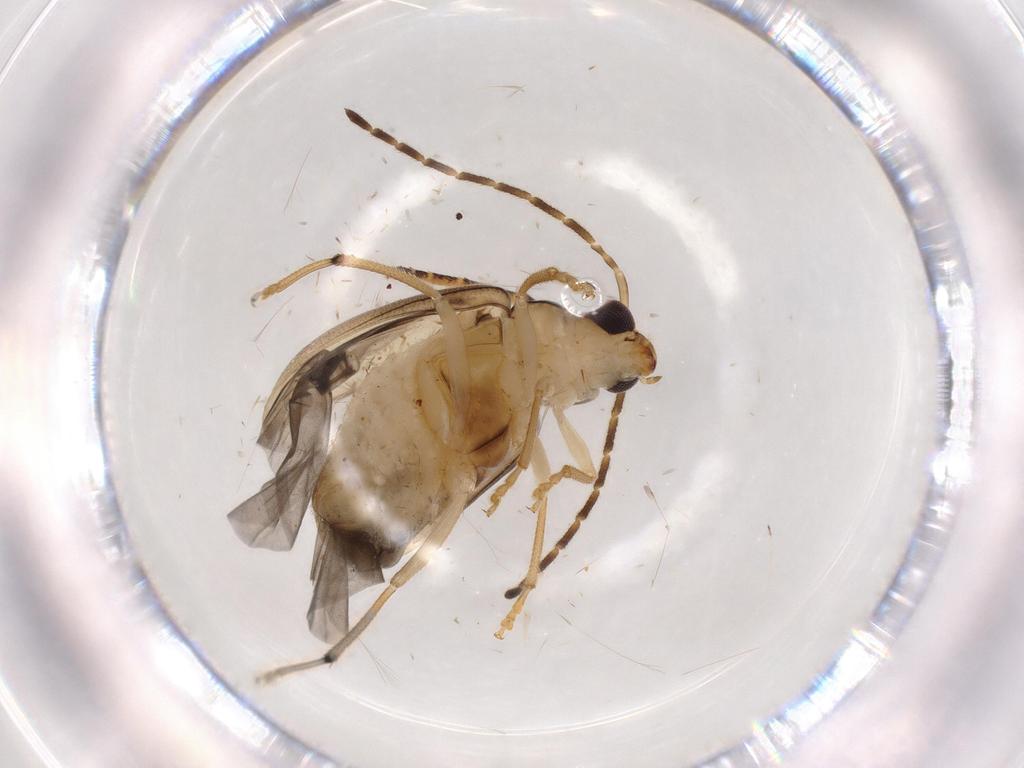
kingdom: Animalia
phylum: Arthropoda
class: Insecta
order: Coleoptera
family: Chrysomelidae
